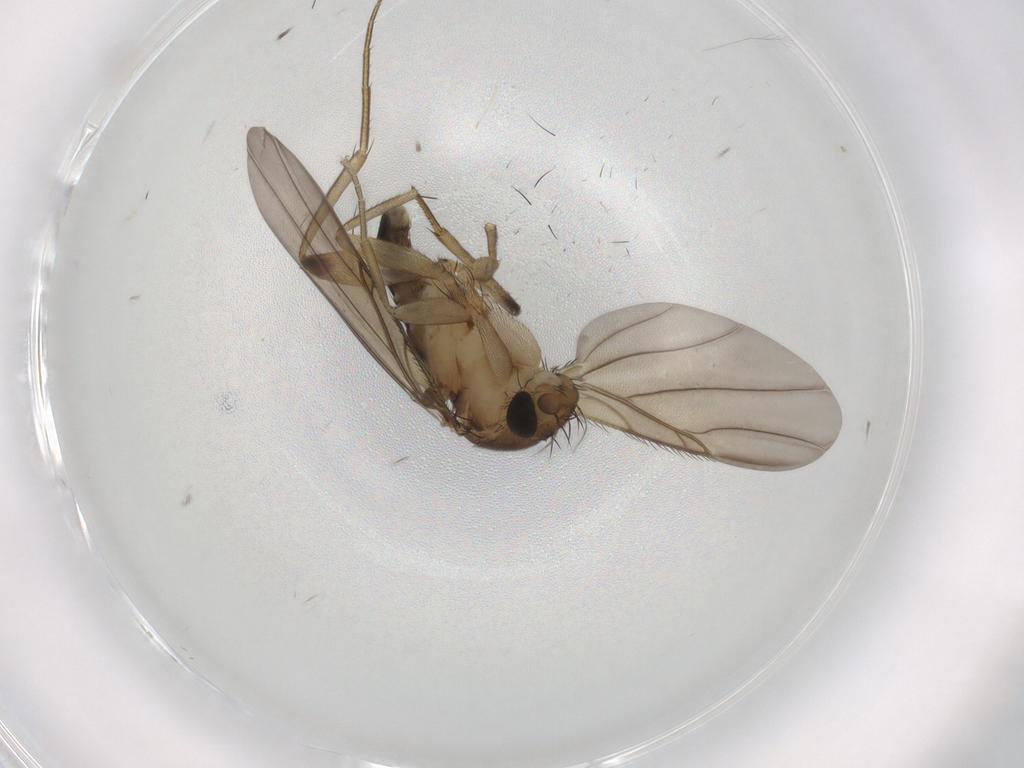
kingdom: Animalia
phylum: Arthropoda
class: Insecta
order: Diptera
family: Phoridae
